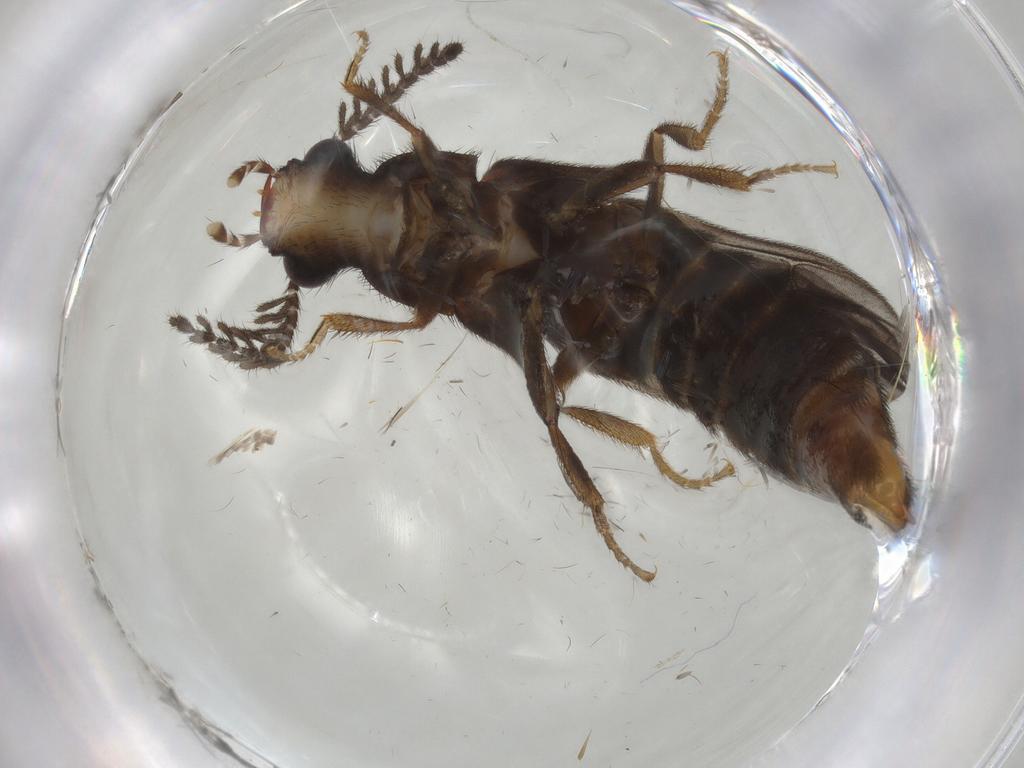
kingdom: Animalia
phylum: Arthropoda
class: Insecta
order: Coleoptera
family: Phengodidae
